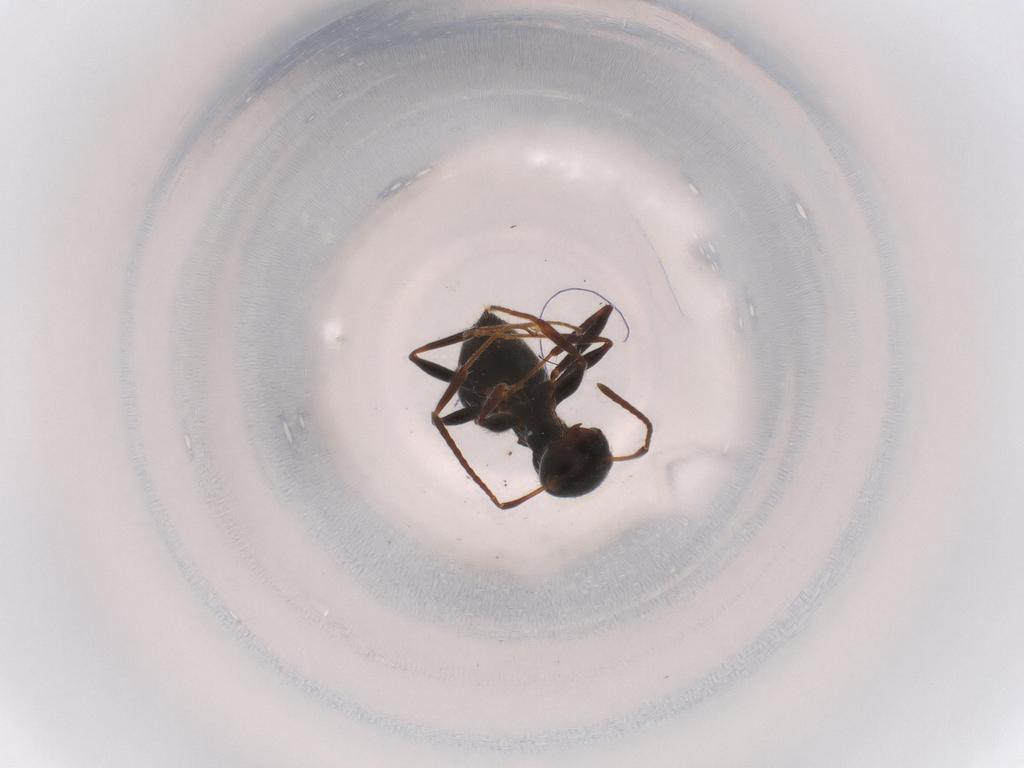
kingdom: Animalia
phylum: Arthropoda
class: Insecta
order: Hymenoptera
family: Formicidae
